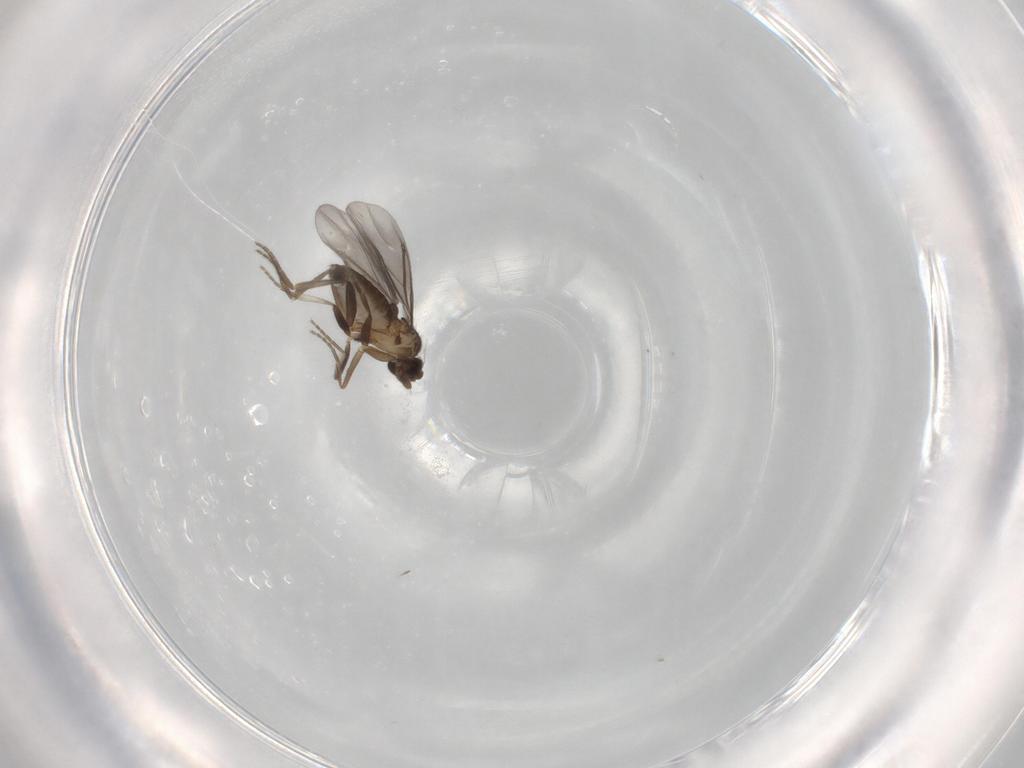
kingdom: Animalia
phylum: Arthropoda
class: Insecta
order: Diptera
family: Phoridae
